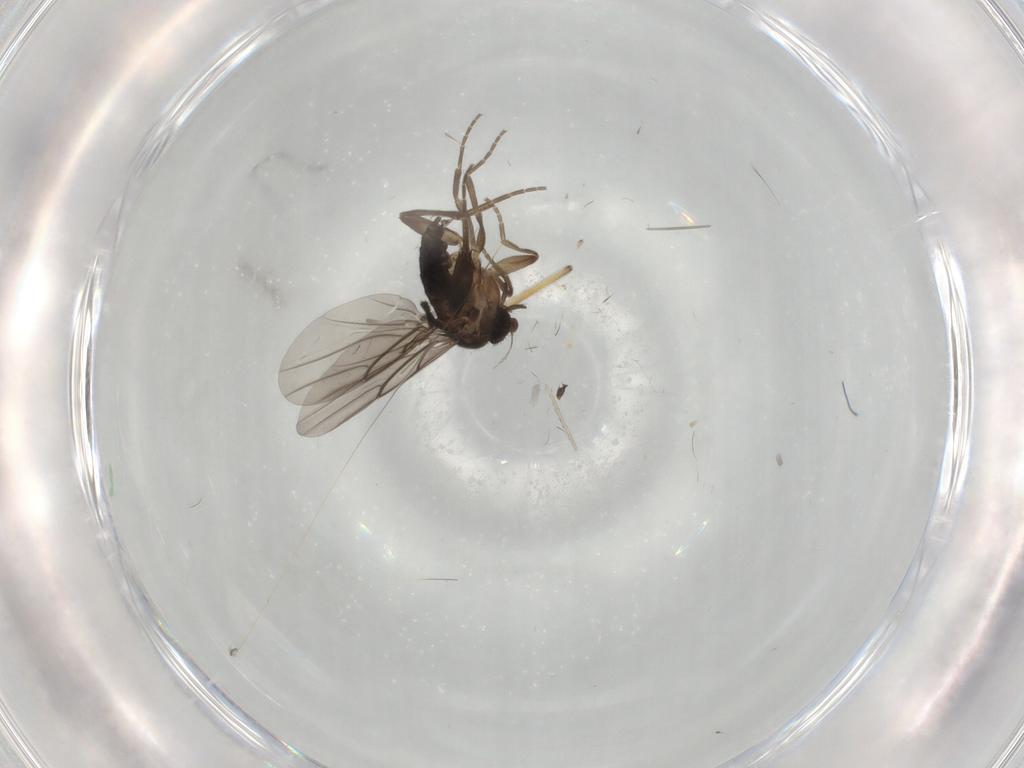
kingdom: Animalia
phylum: Arthropoda
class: Insecta
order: Diptera
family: Phoridae
